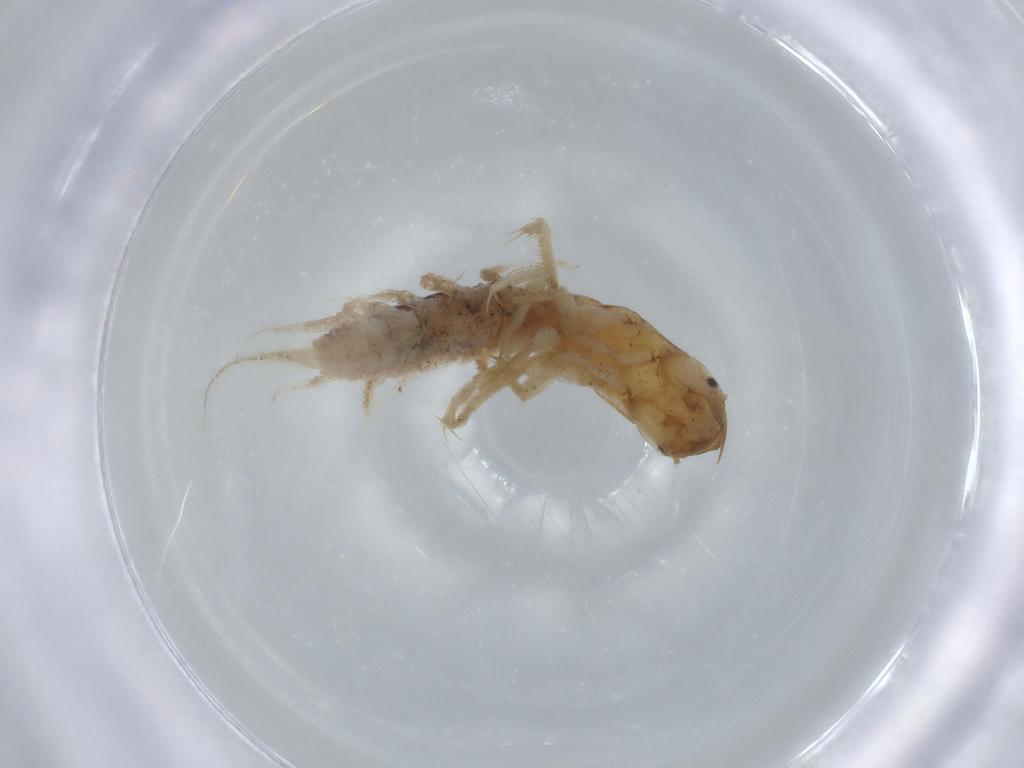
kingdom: Animalia
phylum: Arthropoda
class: Insecta
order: Megaloptera
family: Sialidae
